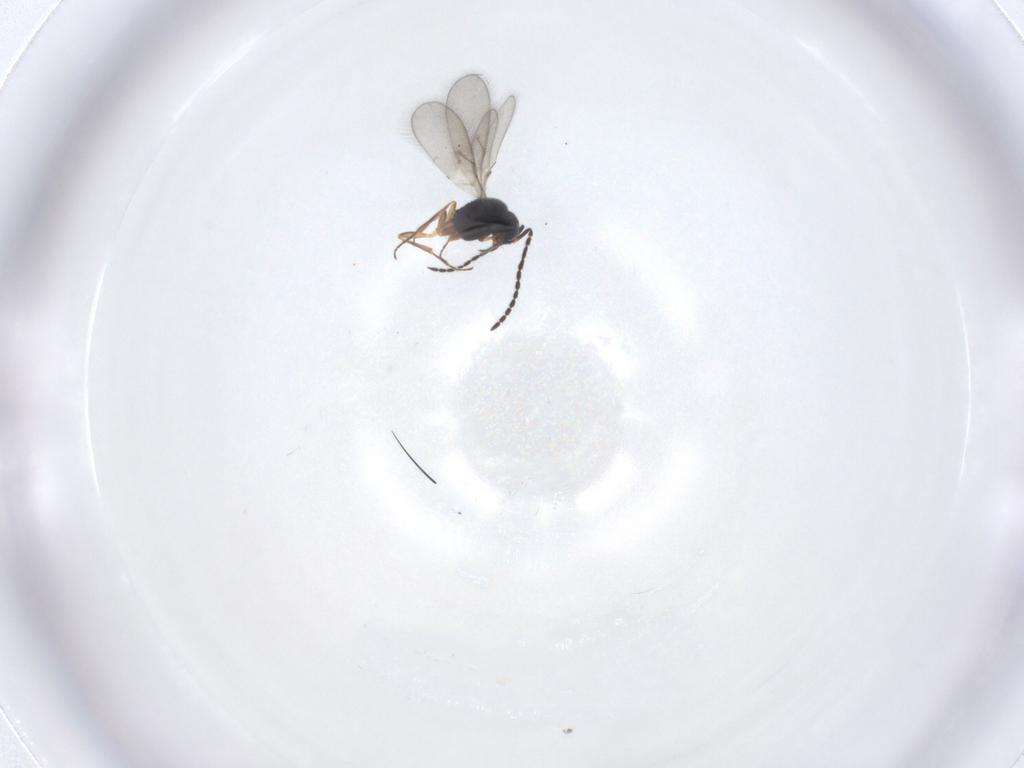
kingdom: Animalia
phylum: Arthropoda
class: Insecta
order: Hymenoptera
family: Scelionidae
